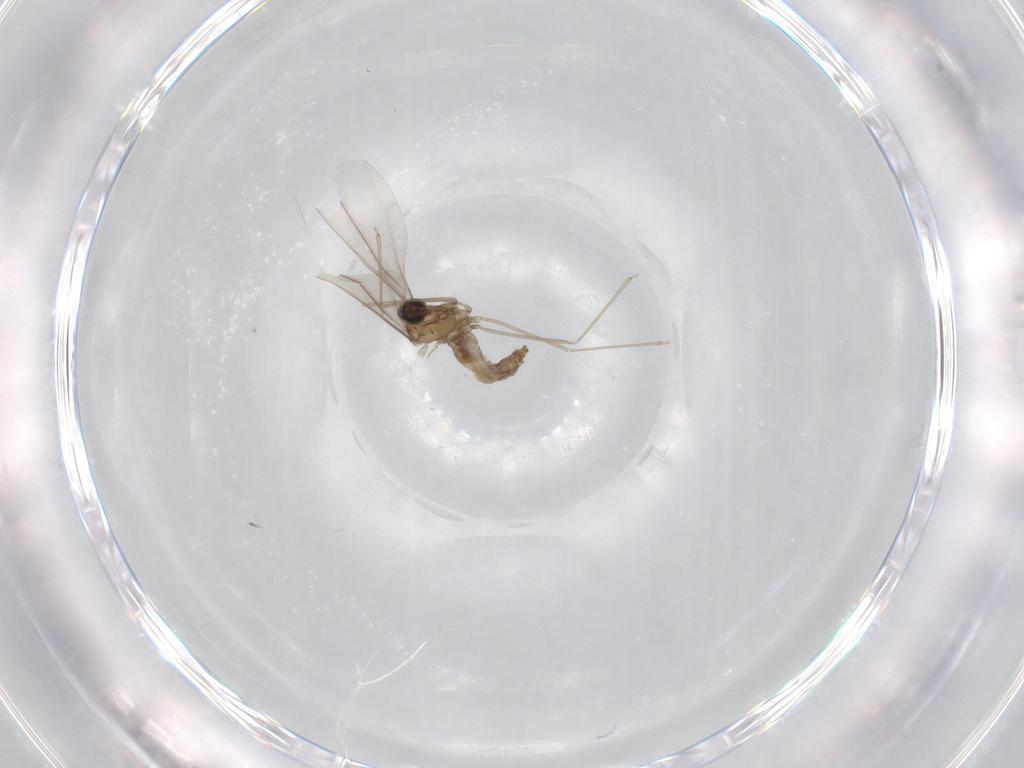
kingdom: Animalia
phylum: Arthropoda
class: Insecta
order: Diptera
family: Cecidomyiidae
